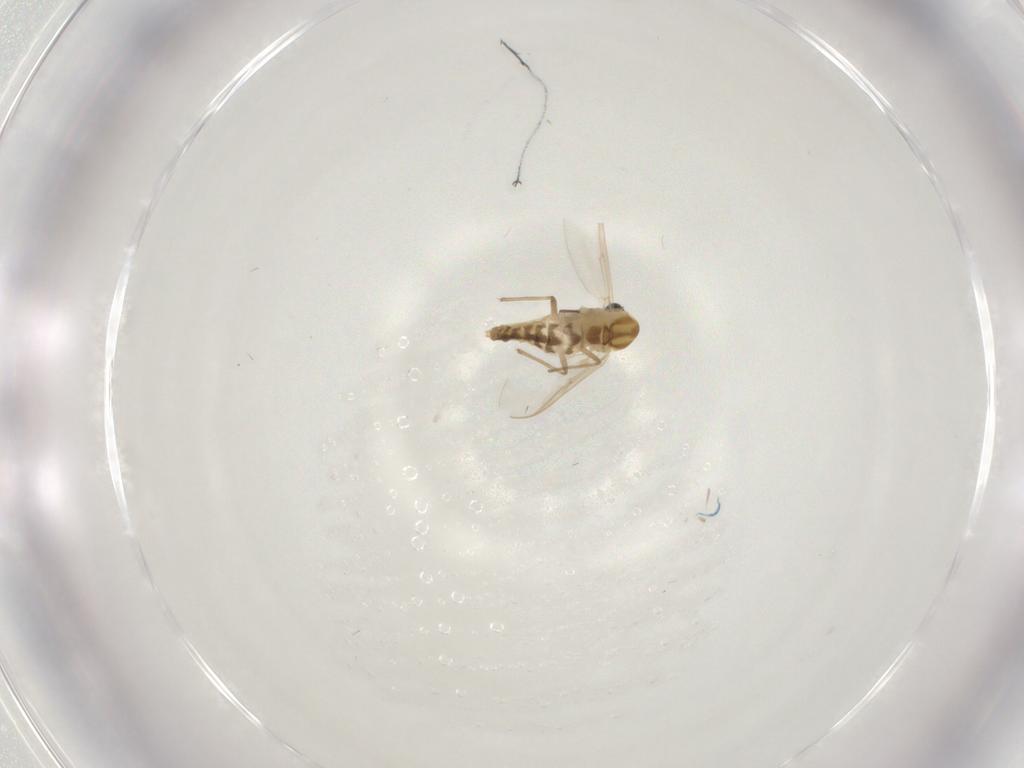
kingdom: Animalia
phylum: Arthropoda
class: Insecta
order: Diptera
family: Chironomidae
